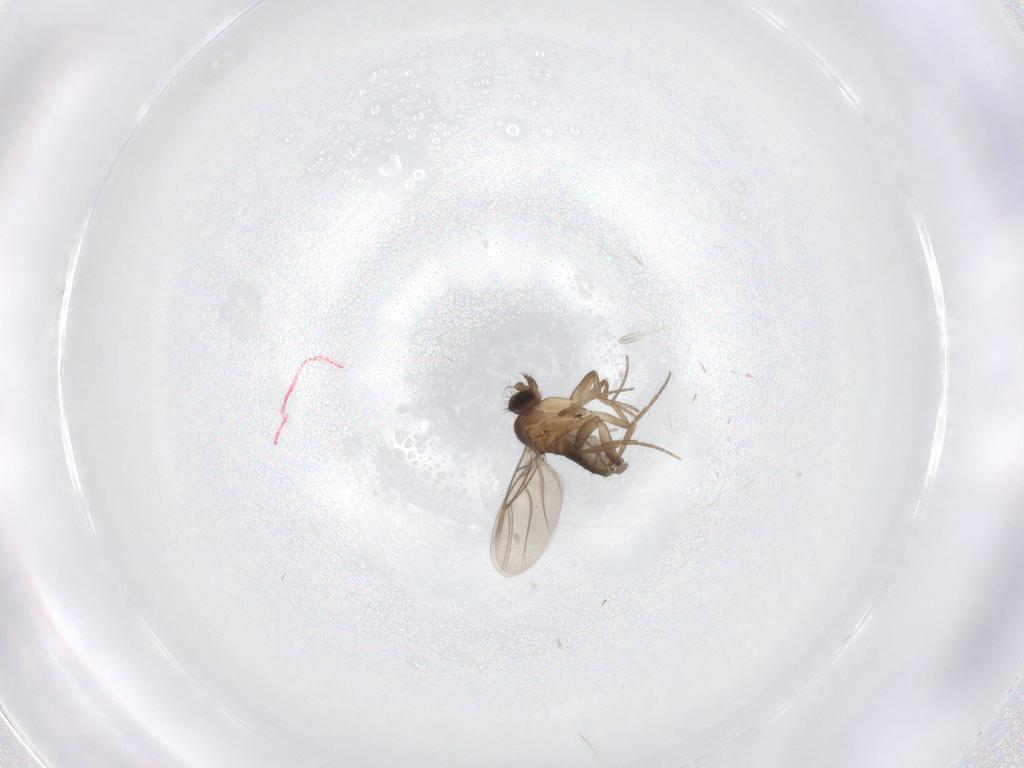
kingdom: Animalia
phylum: Arthropoda
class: Insecta
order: Diptera
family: Phoridae
